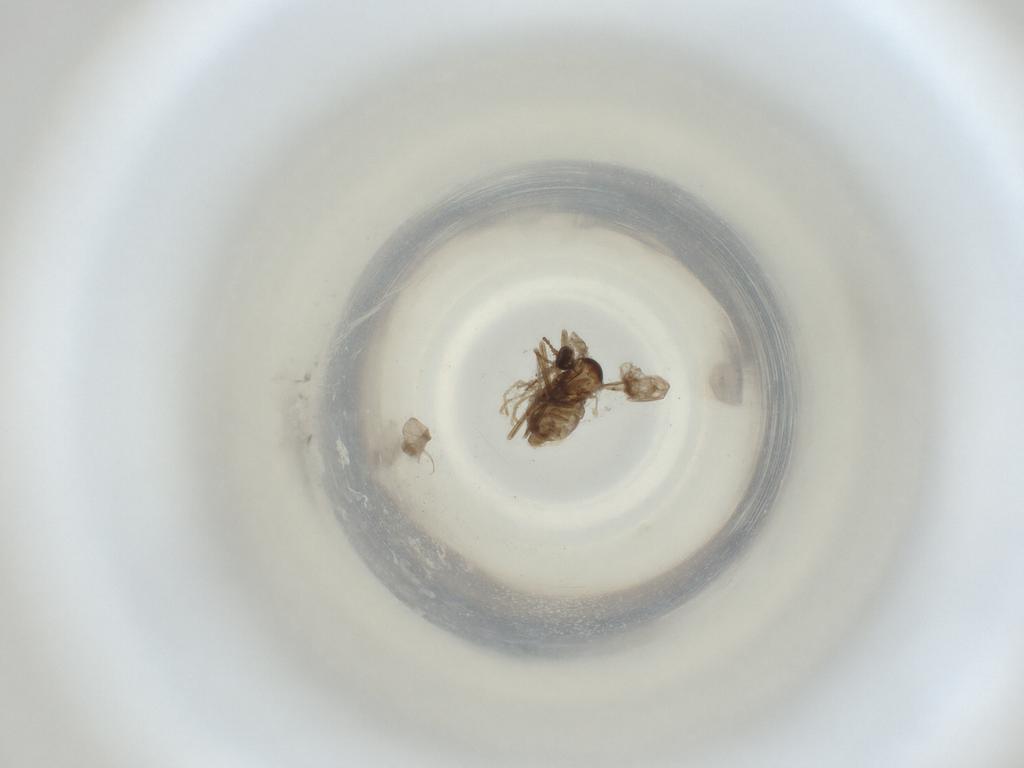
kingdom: Animalia
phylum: Arthropoda
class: Insecta
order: Diptera
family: Cecidomyiidae
